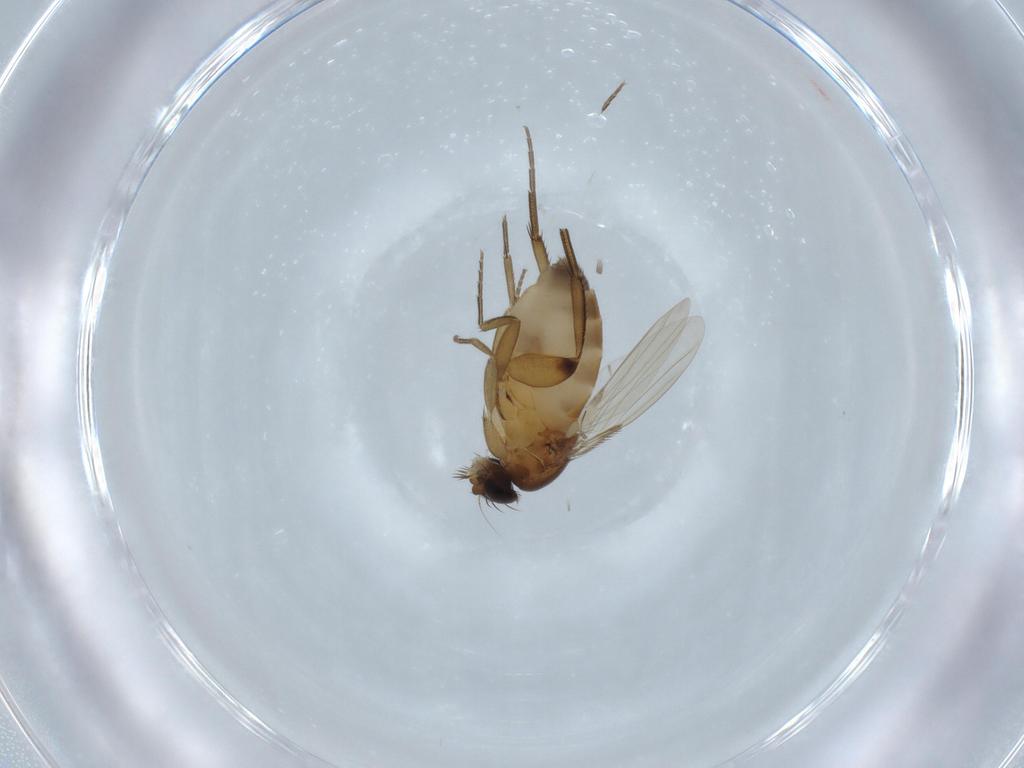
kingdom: Animalia
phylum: Arthropoda
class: Insecta
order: Diptera
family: Phoridae
